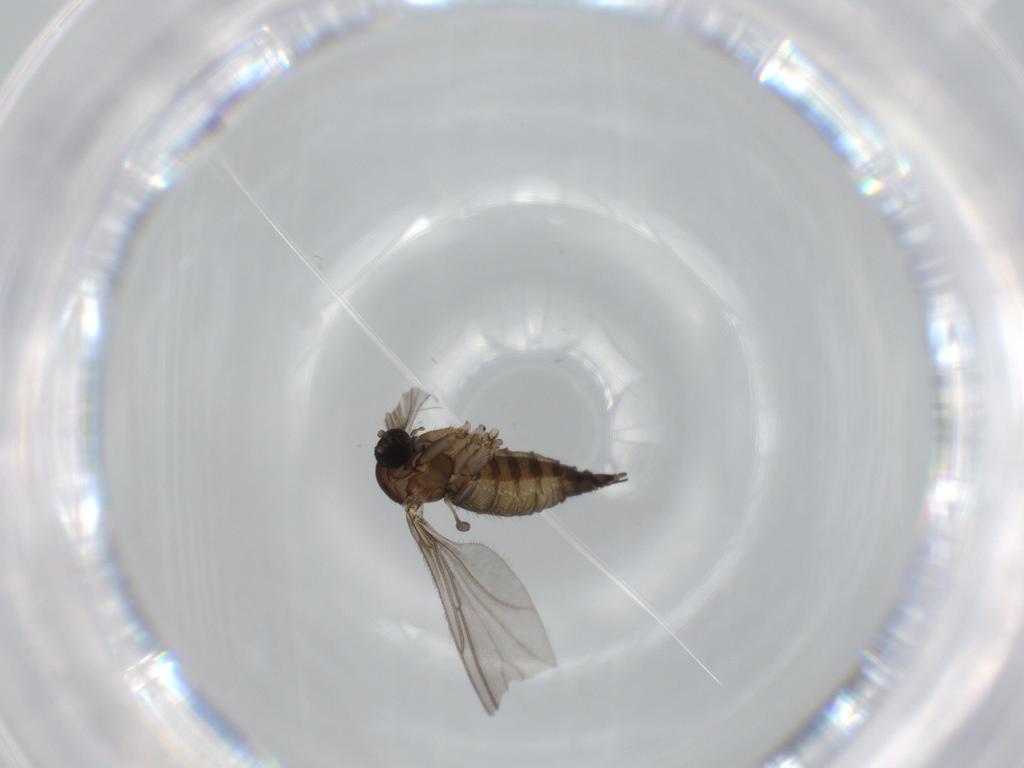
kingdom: Animalia
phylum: Arthropoda
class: Insecta
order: Diptera
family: Sciaridae
